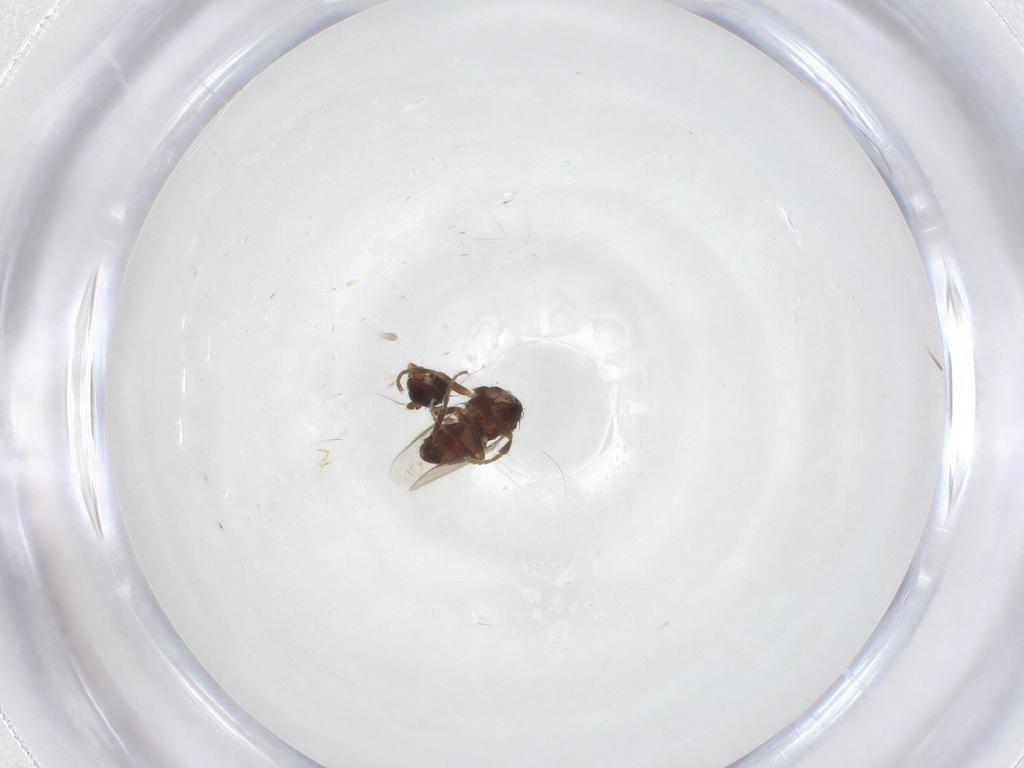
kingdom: Animalia
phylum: Arthropoda
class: Insecta
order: Diptera
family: Sphaeroceridae
